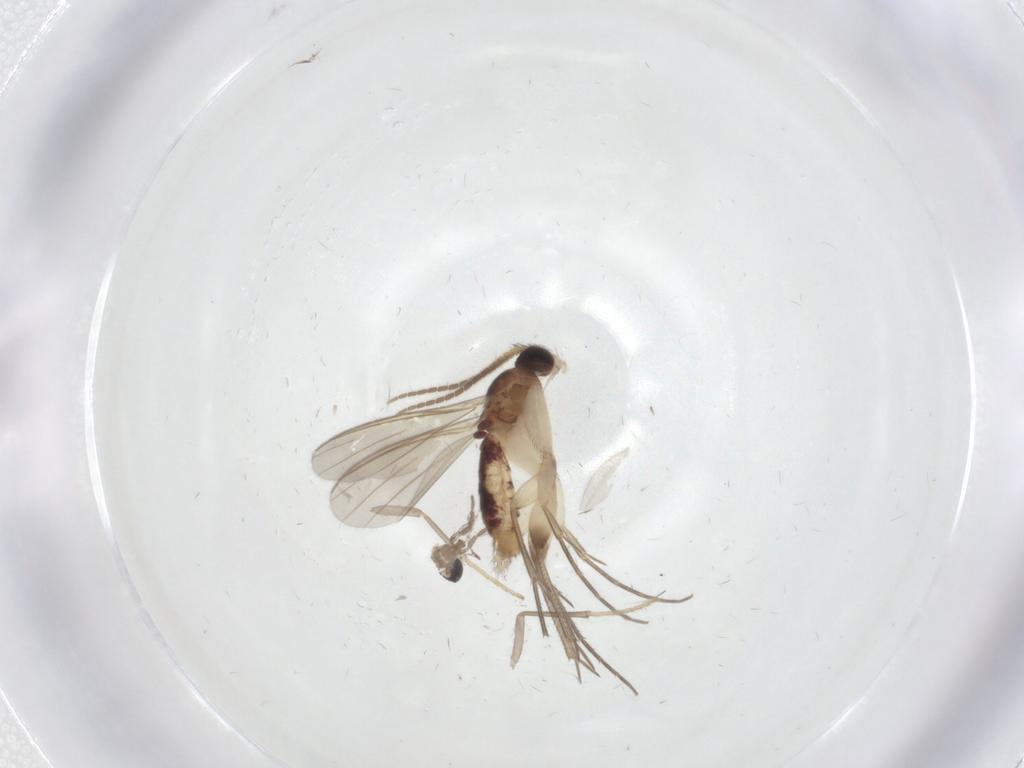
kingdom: Animalia
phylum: Arthropoda
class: Insecta
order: Diptera
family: Mycetophilidae
